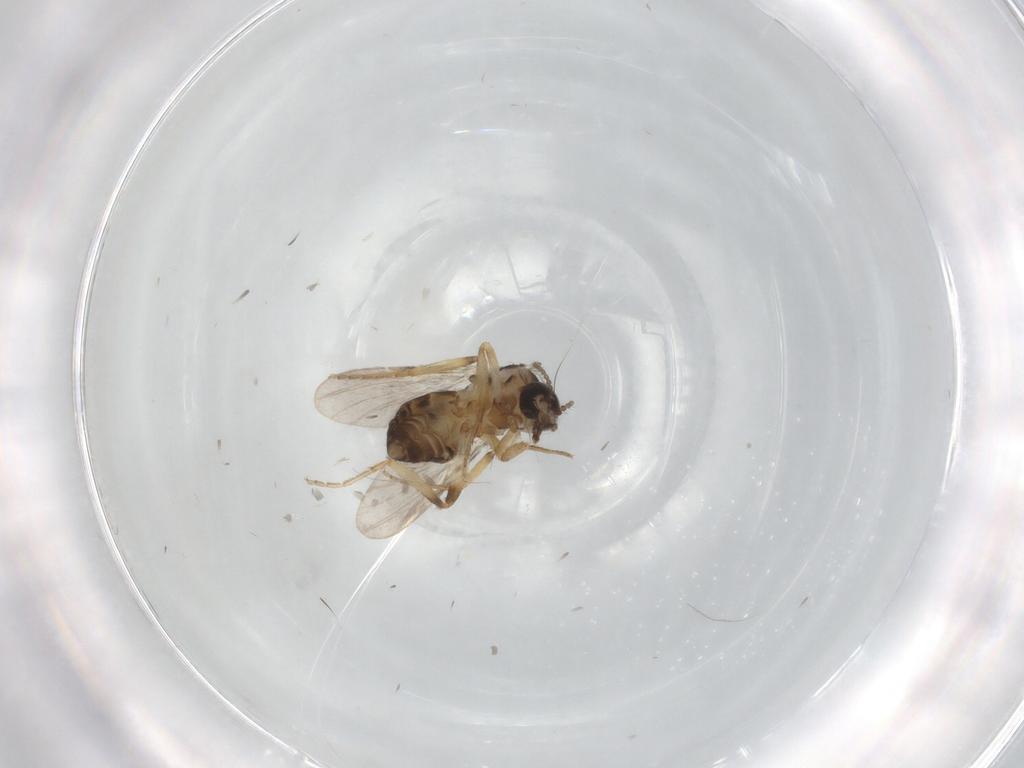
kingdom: Animalia
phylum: Arthropoda
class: Insecta
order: Diptera
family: Ceratopogonidae
